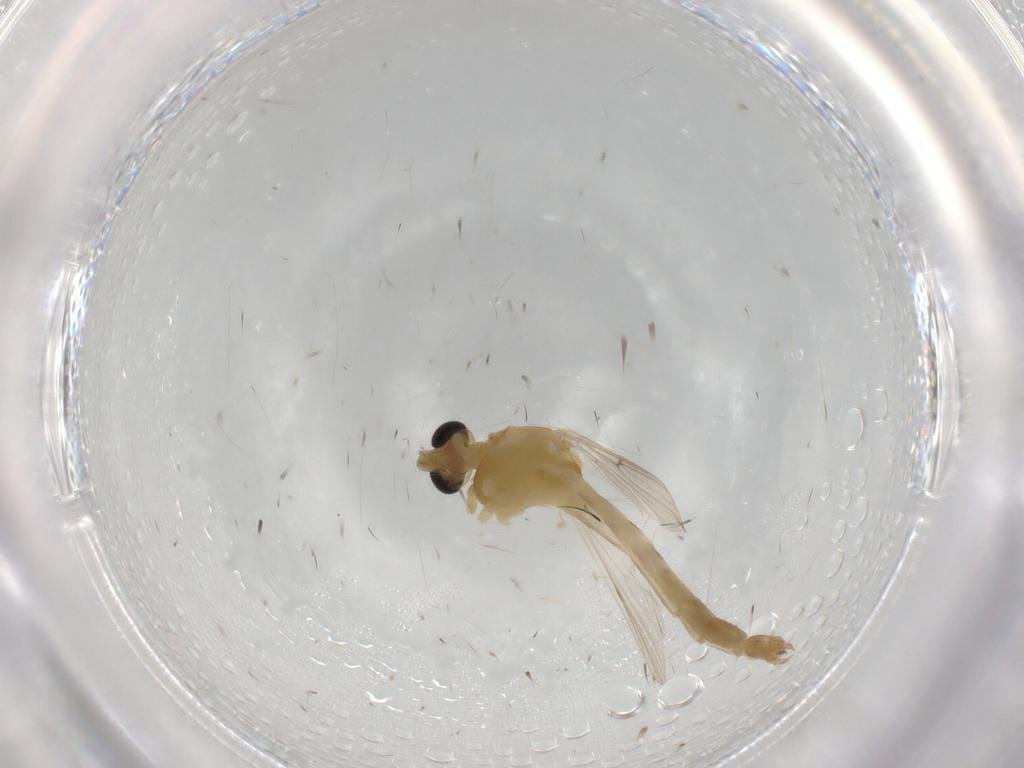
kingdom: Animalia
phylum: Arthropoda
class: Insecta
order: Diptera
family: Chironomidae
